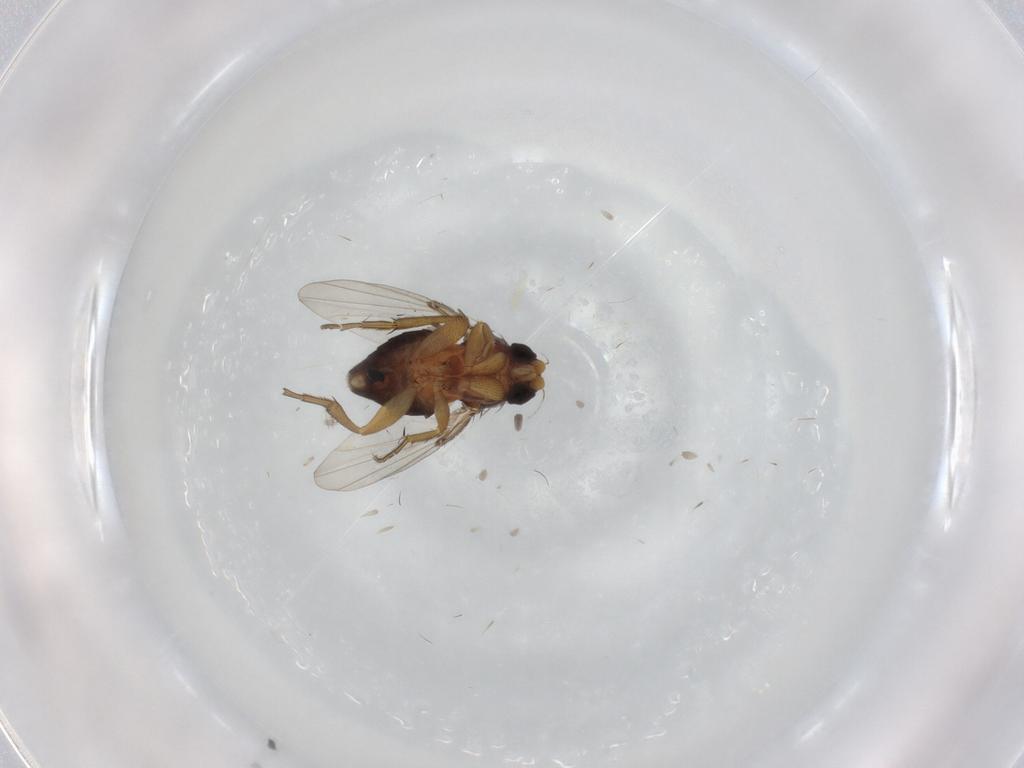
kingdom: Animalia
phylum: Arthropoda
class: Insecta
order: Diptera
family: Phoridae
